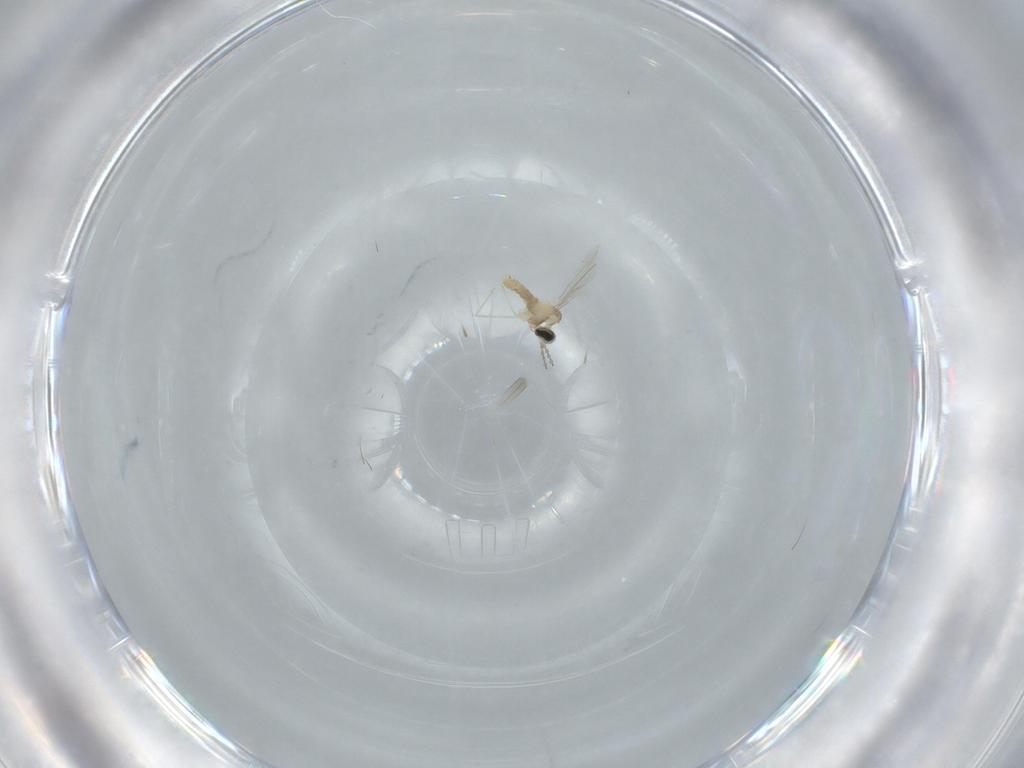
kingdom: Animalia
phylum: Arthropoda
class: Insecta
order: Diptera
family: Cecidomyiidae
